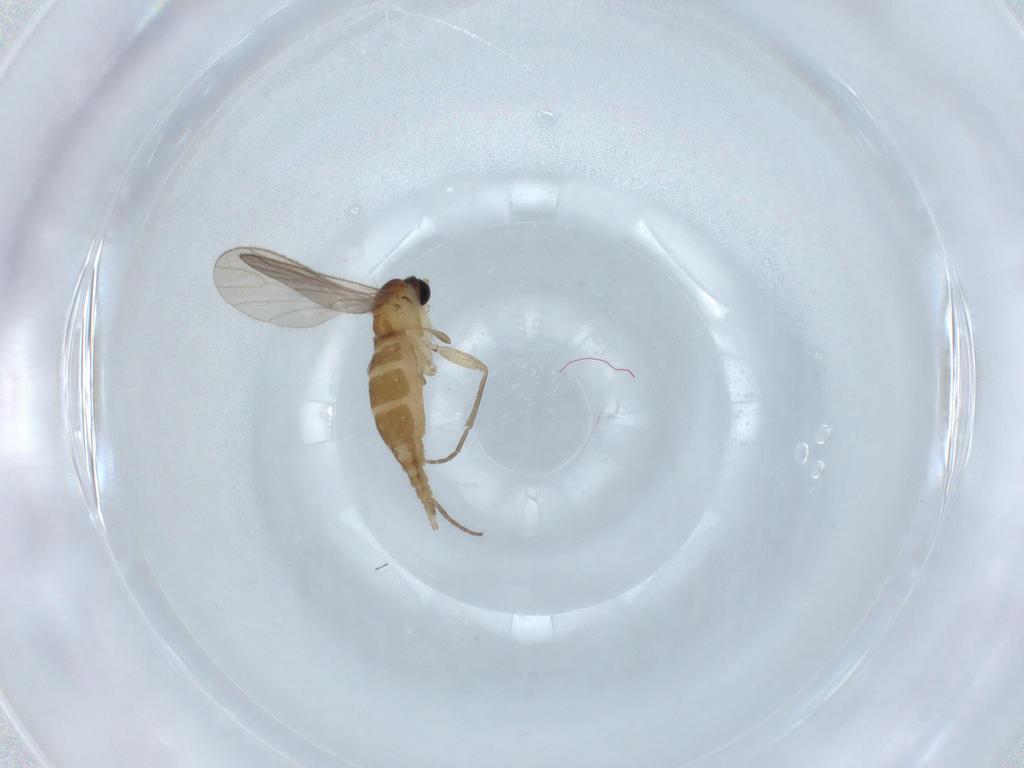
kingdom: Animalia
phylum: Arthropoda
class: Insecta
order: Diptera
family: Sciaridae
